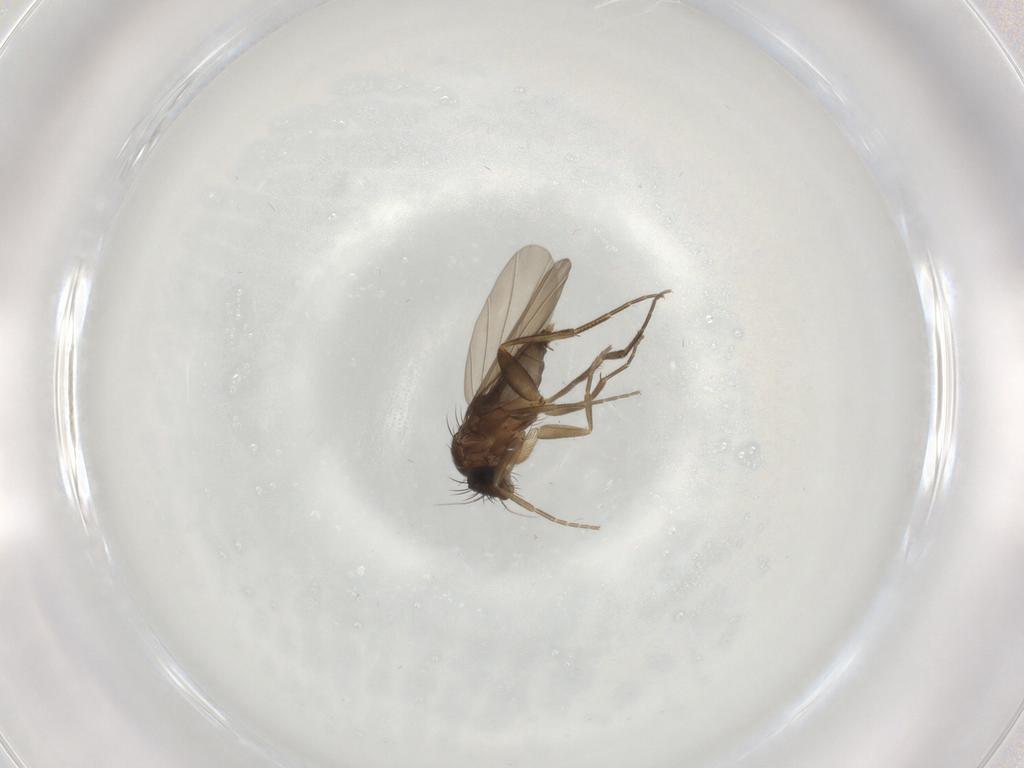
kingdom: Animalia
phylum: Arthropoda
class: Insecta
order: Diptera
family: Phoridae
